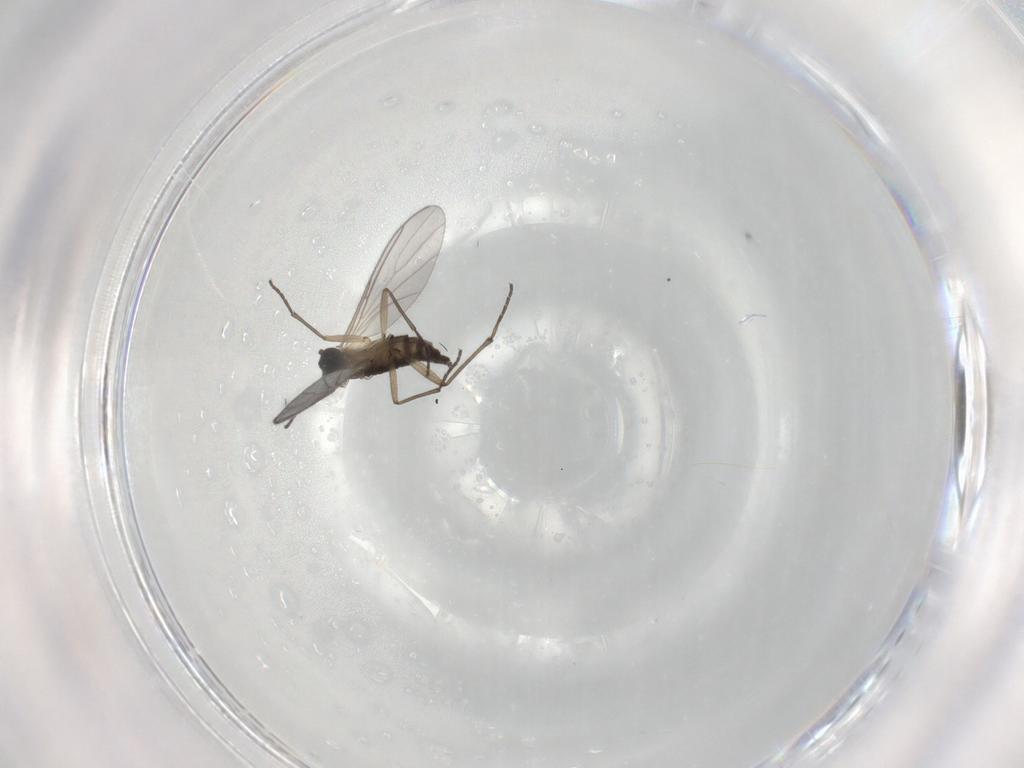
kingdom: Animalia
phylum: Arthropoda
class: Insecta
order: Diptera
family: Sciaridae
